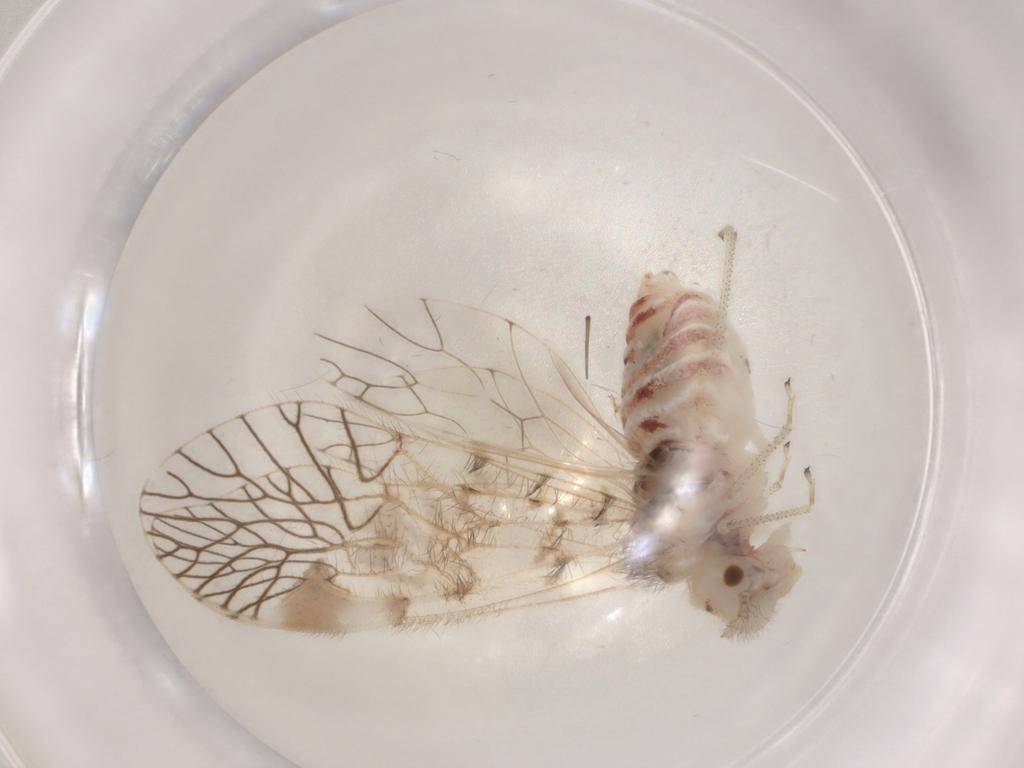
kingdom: Animalia
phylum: Arthropoda
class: Insecta
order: Psocodea
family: Amphipsocidae
